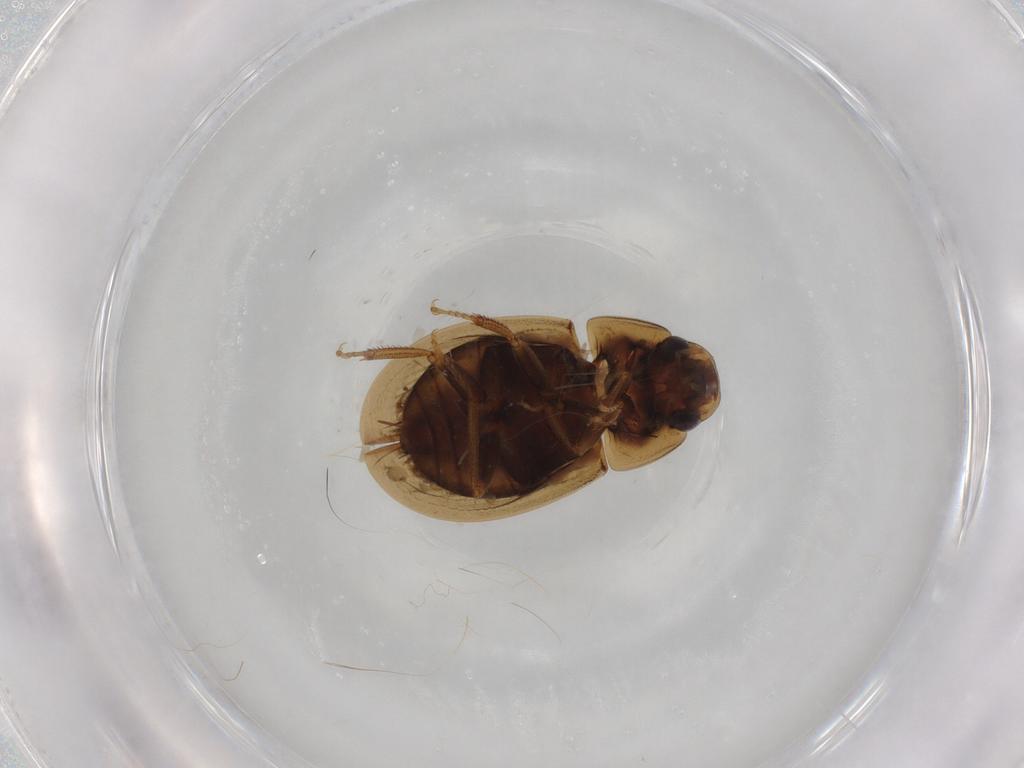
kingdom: Animalia
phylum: Arthropoda
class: Insecta
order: Coleoptera
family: Hydrophilidae
